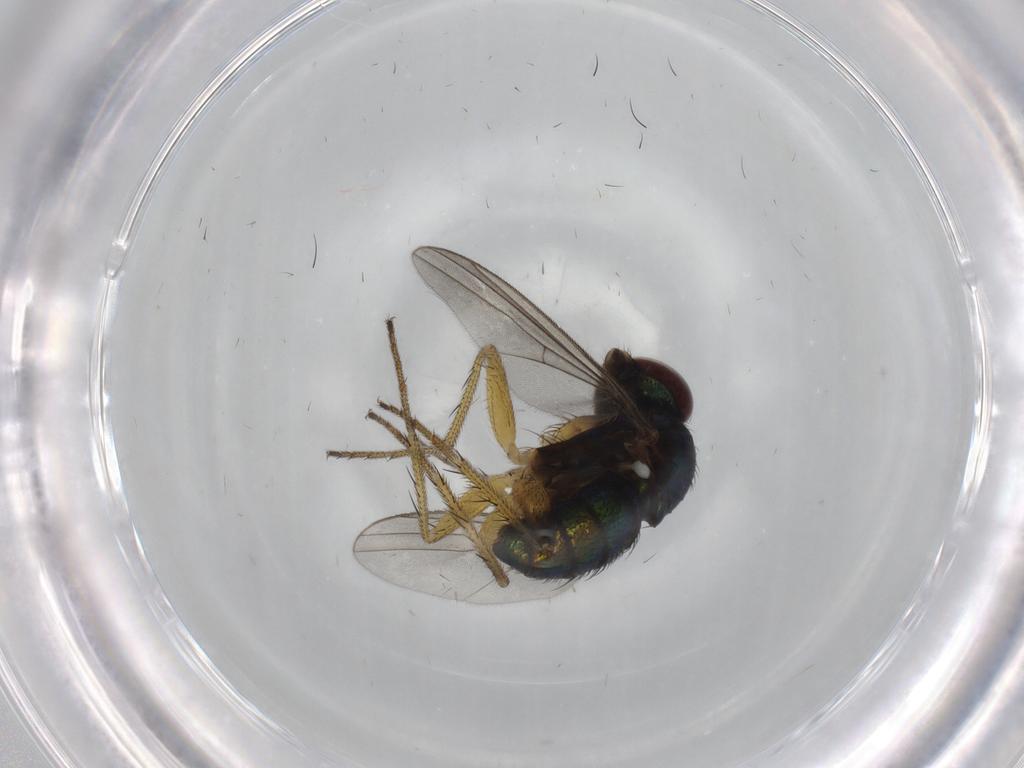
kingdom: Animalia
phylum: Arthropoda
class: Insecta
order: Diptera
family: Dolichopodidae
